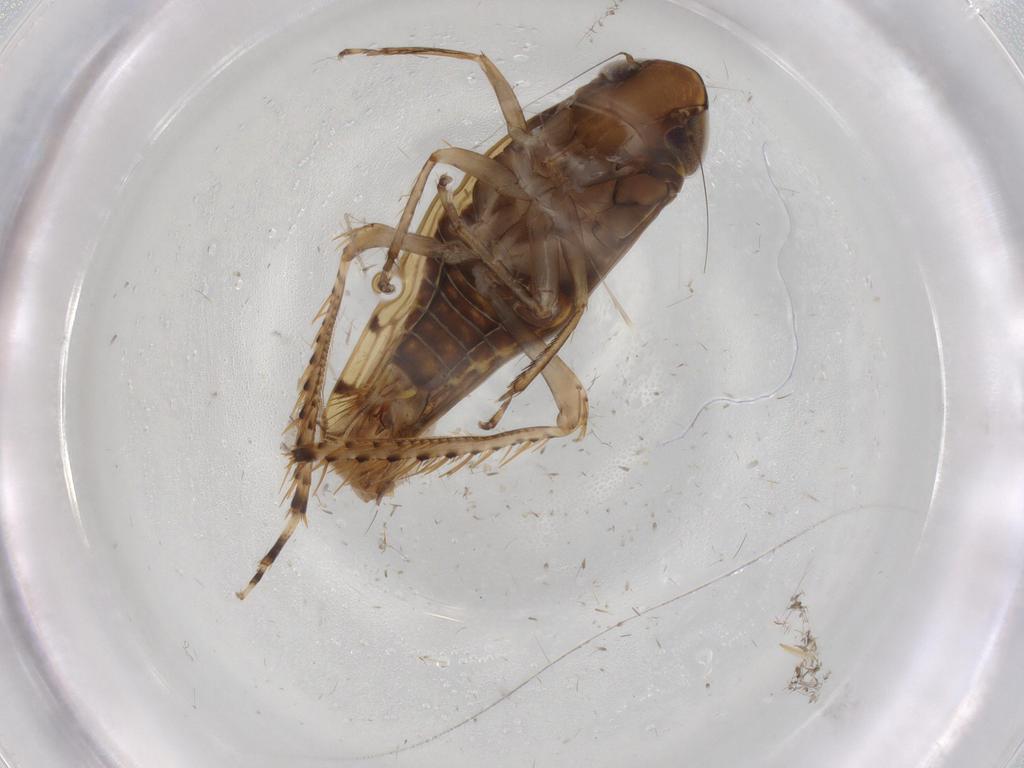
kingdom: Animalia
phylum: Arthropoda
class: Insecta
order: Hemiptera
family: Cicadellidae
